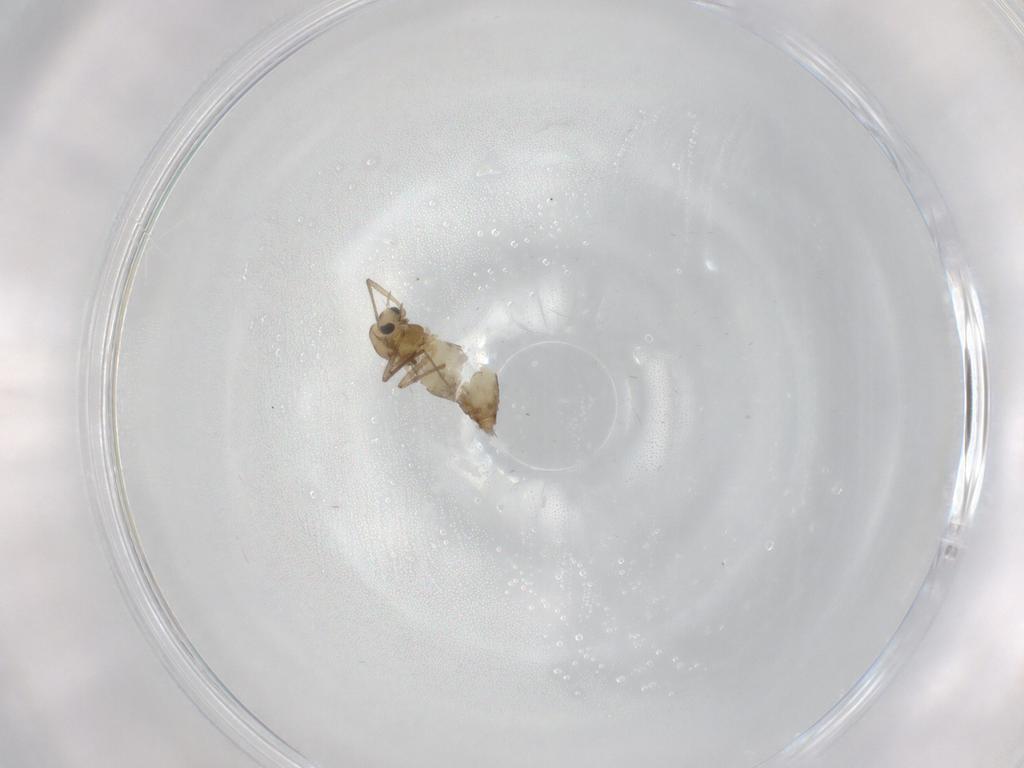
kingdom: Animalia
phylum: Arthropoda
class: Insecta
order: Diptera
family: Chironomidae
